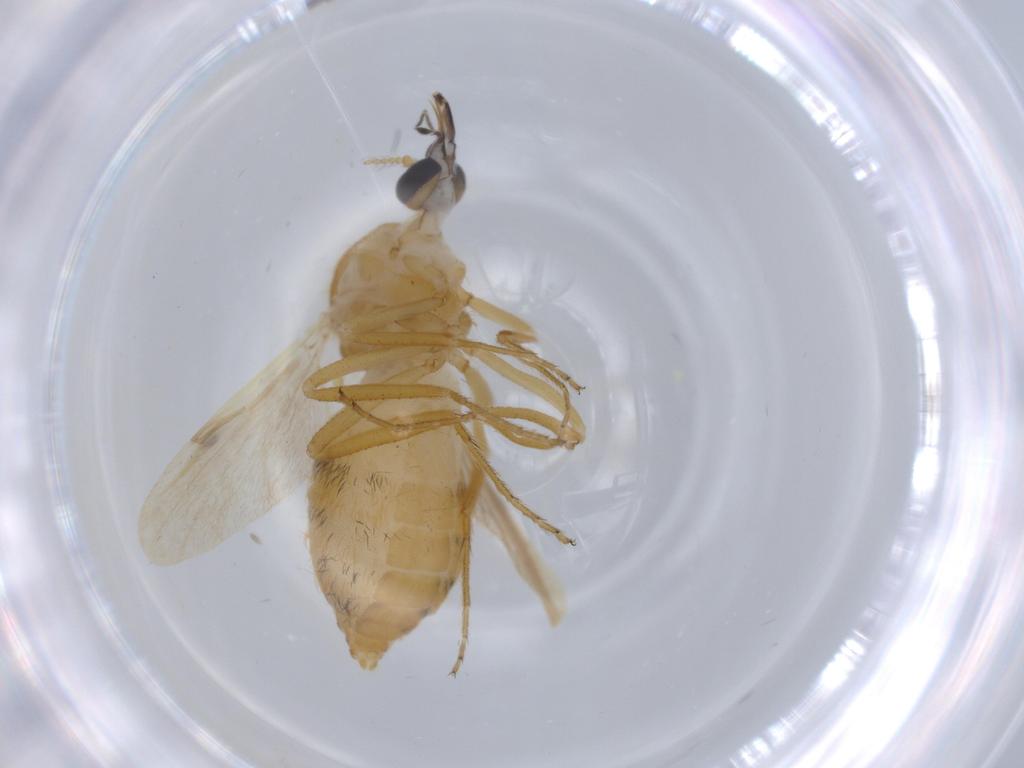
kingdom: Animalia
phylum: Arthropoda
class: Insecta
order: Diptera
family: Ceratopogonidae
